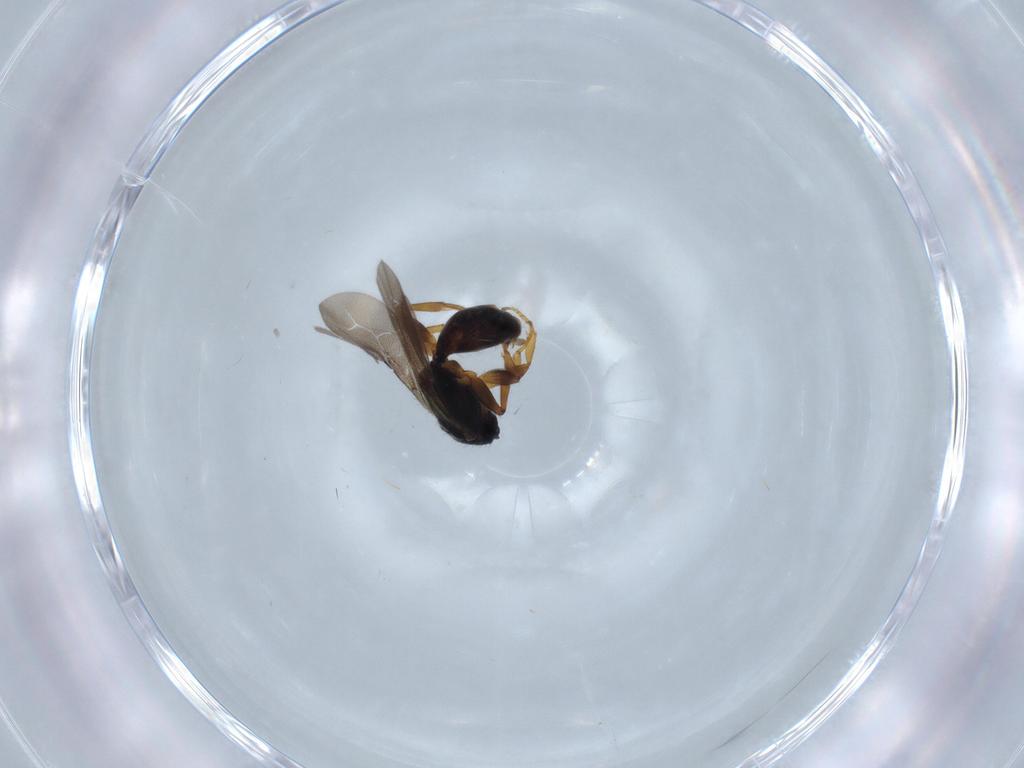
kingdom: Animalia
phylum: Arthropoda
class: Insecta
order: Hymenoptera
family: Bethylidae
